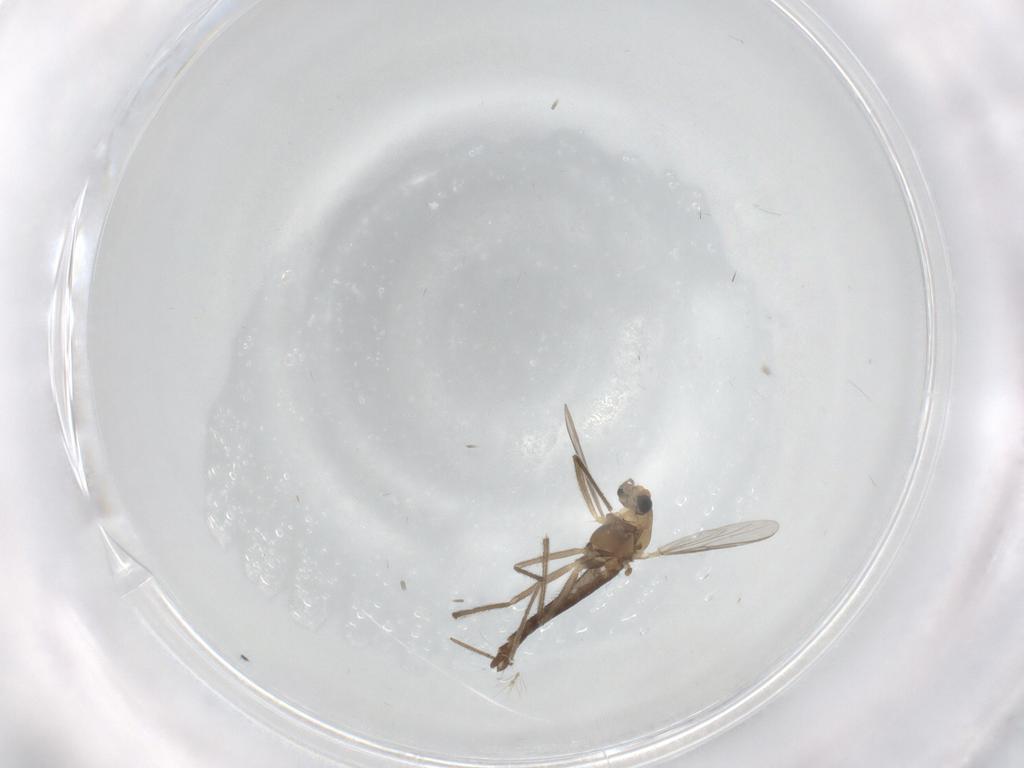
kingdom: Animalia
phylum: Arthropoda
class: Insecta
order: Diptera
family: Chironomidae
